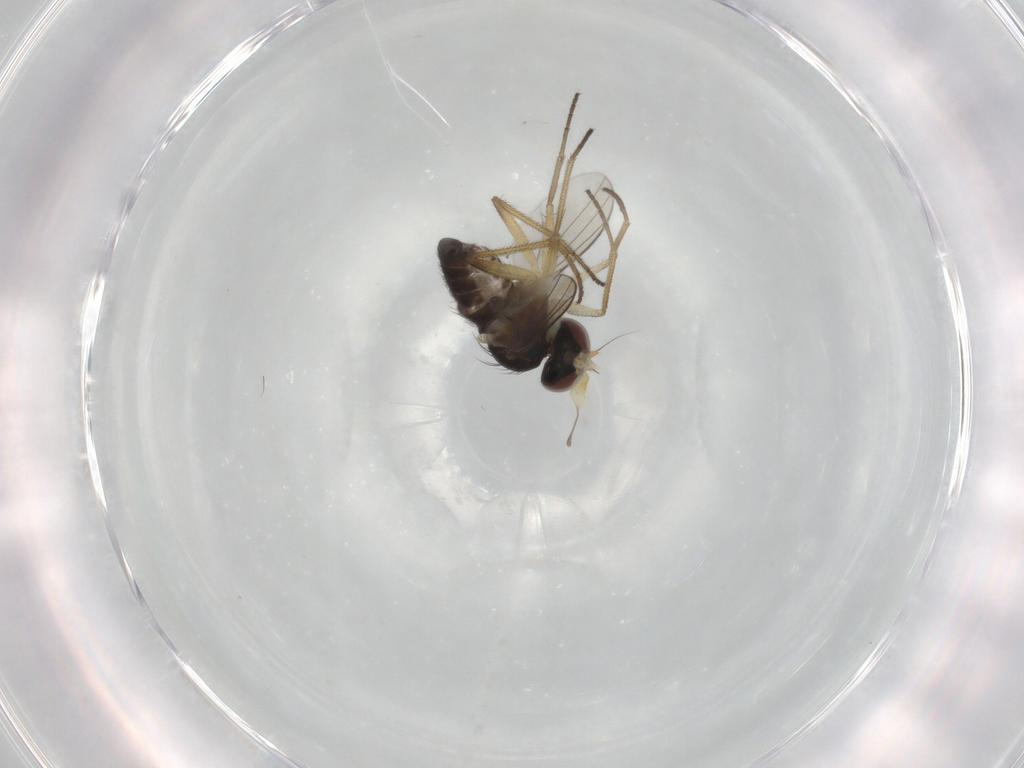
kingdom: Animalia
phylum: Arthropoda
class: Insecta
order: Diptera
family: Dolichopodidae
